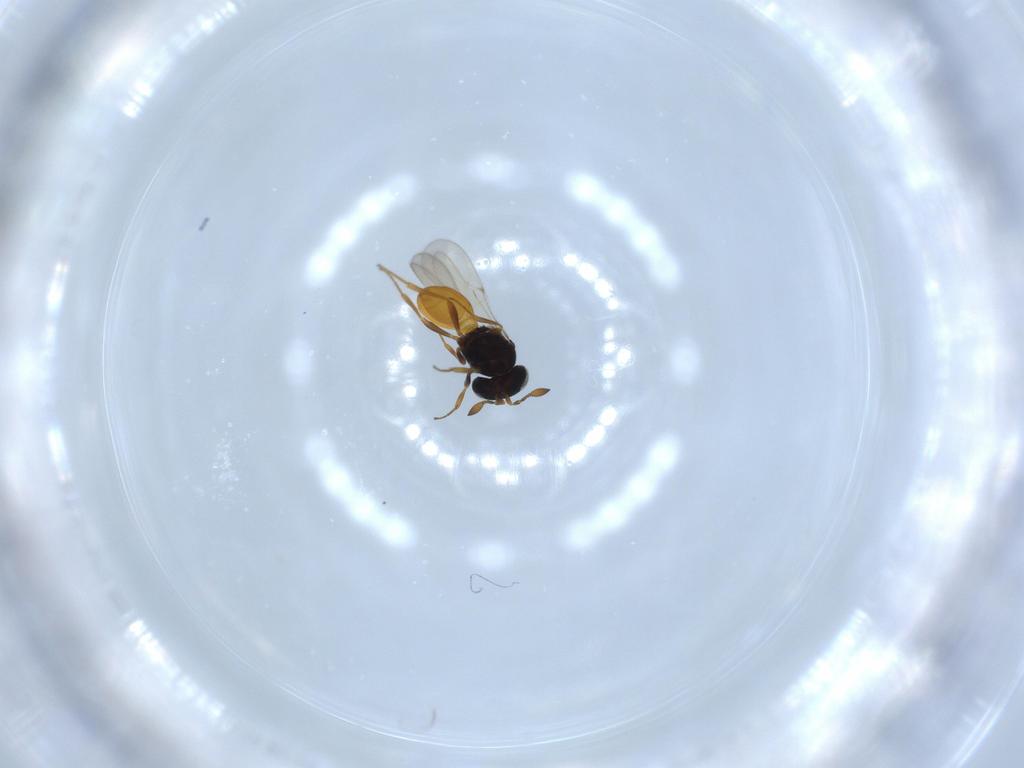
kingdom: Animalia
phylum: Arthropoda
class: Insecta
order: Hymenoptera
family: Scelionidae
